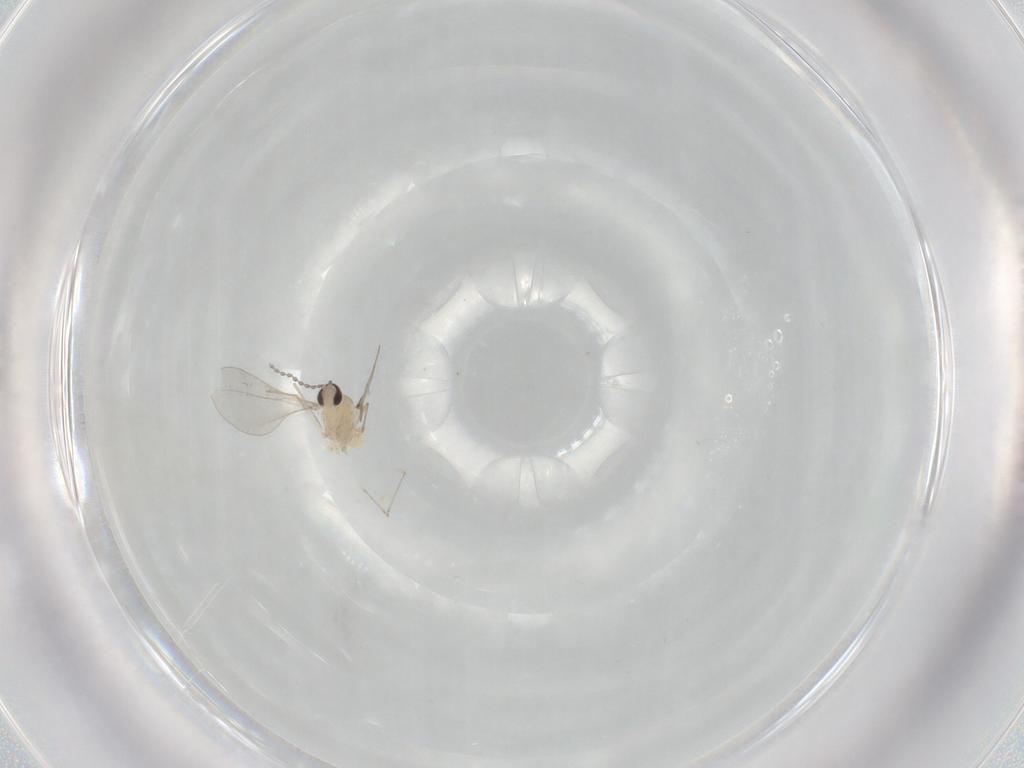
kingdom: Animalia
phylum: Arthropoda
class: Insecta
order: Diptera
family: Cecidomyiidae
